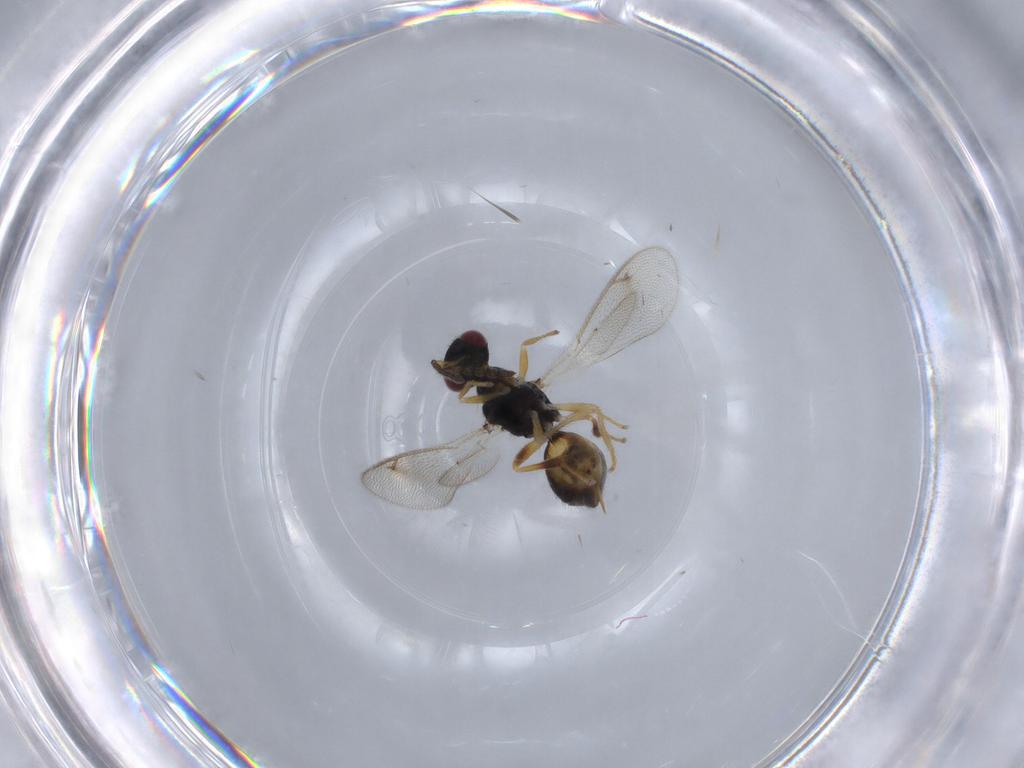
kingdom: Animalia
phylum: Arthropoda
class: Insecta
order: Hymenoptera
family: Eulophidae
